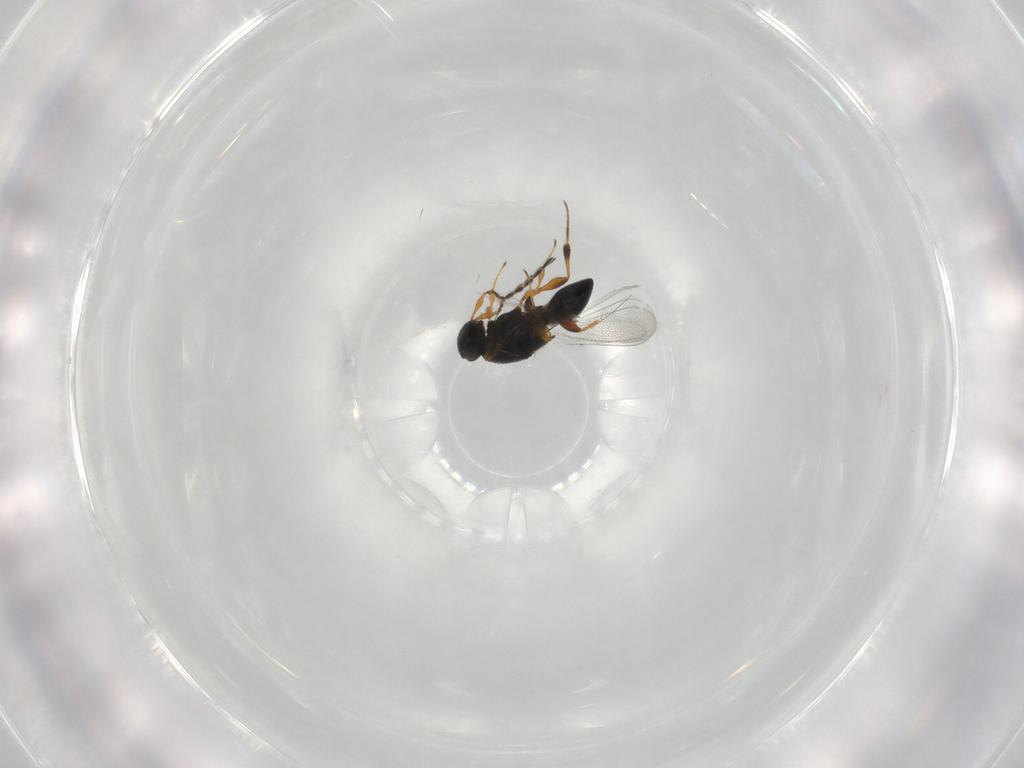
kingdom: Animalia
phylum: Arthropoda
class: Insecta
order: Hymenoptera
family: Platygastridae
